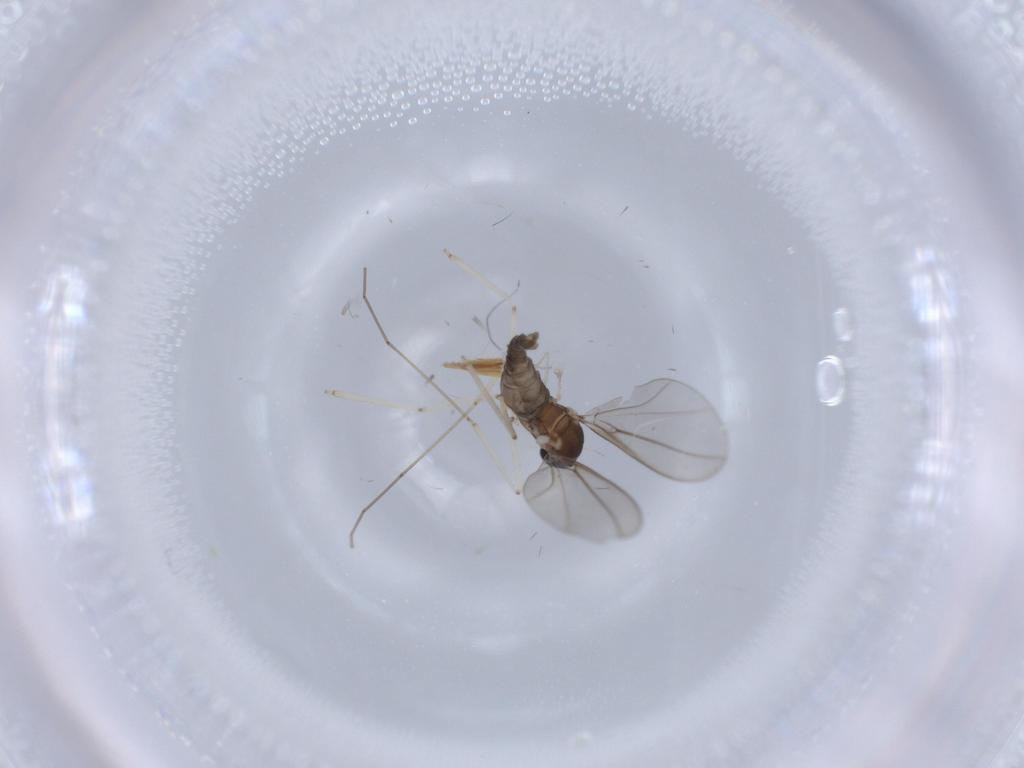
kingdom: Animalia
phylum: Arthropoda
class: Insecta
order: Diptera
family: Cecidomyiidae
